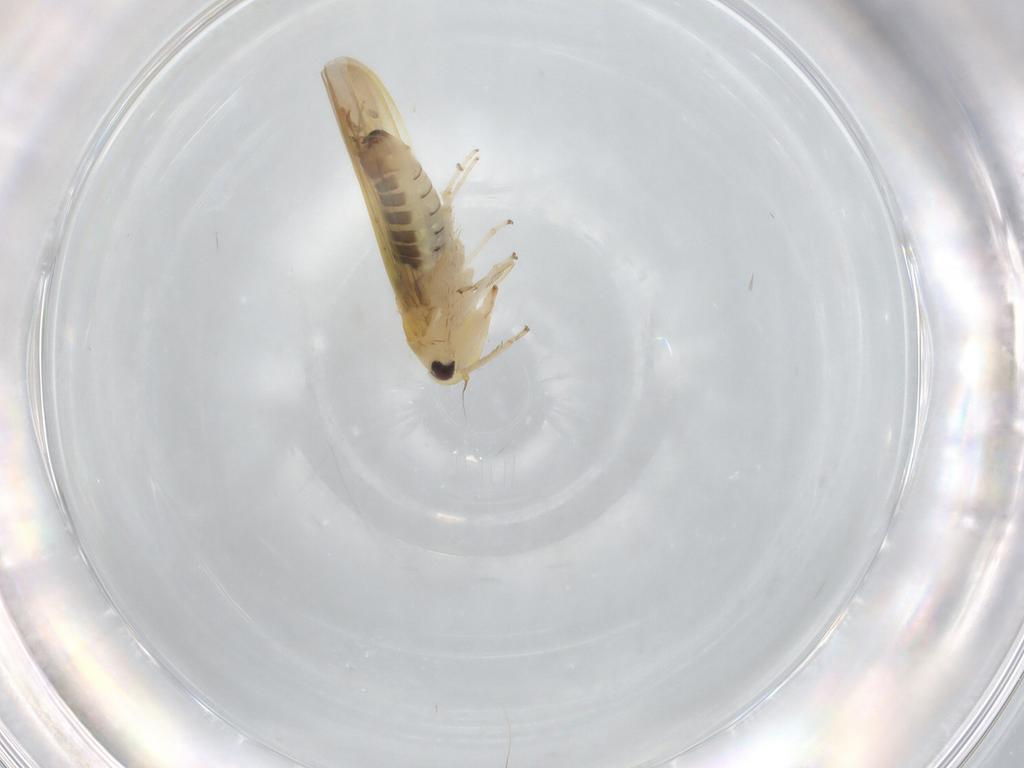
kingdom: Animalia
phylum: Arthropoda
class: Insecta
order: Hemiptera
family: Cicadellidae
